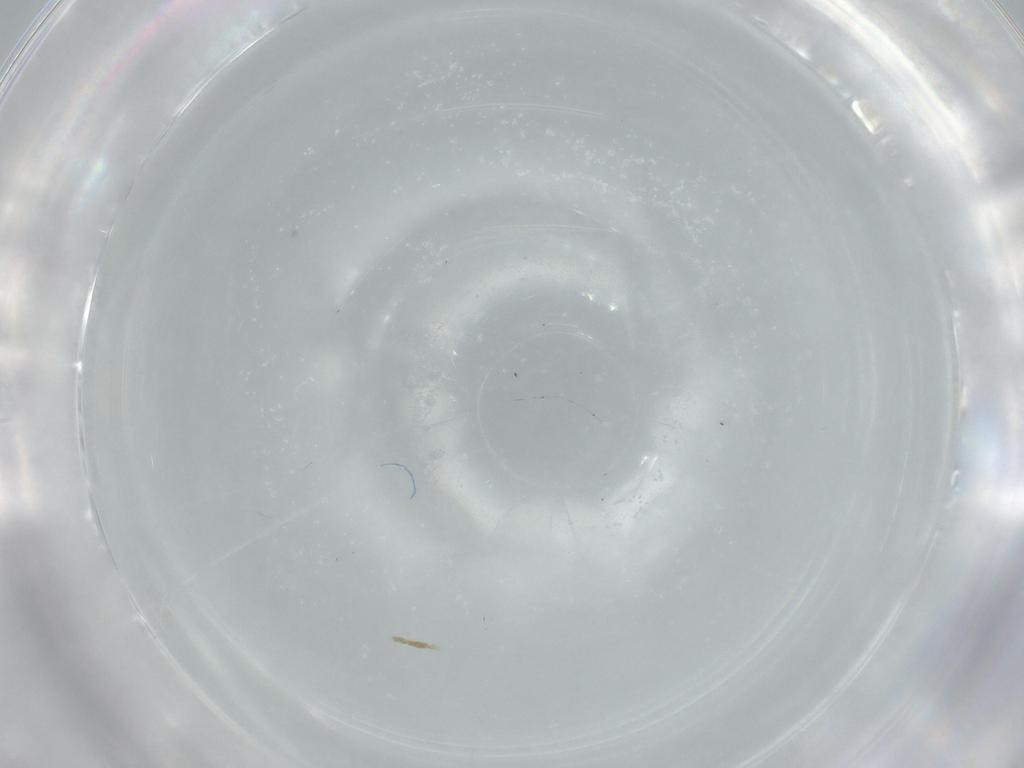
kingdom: Animalia
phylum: Arthropoda
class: Insecta
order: Diptera
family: Sciaridae
